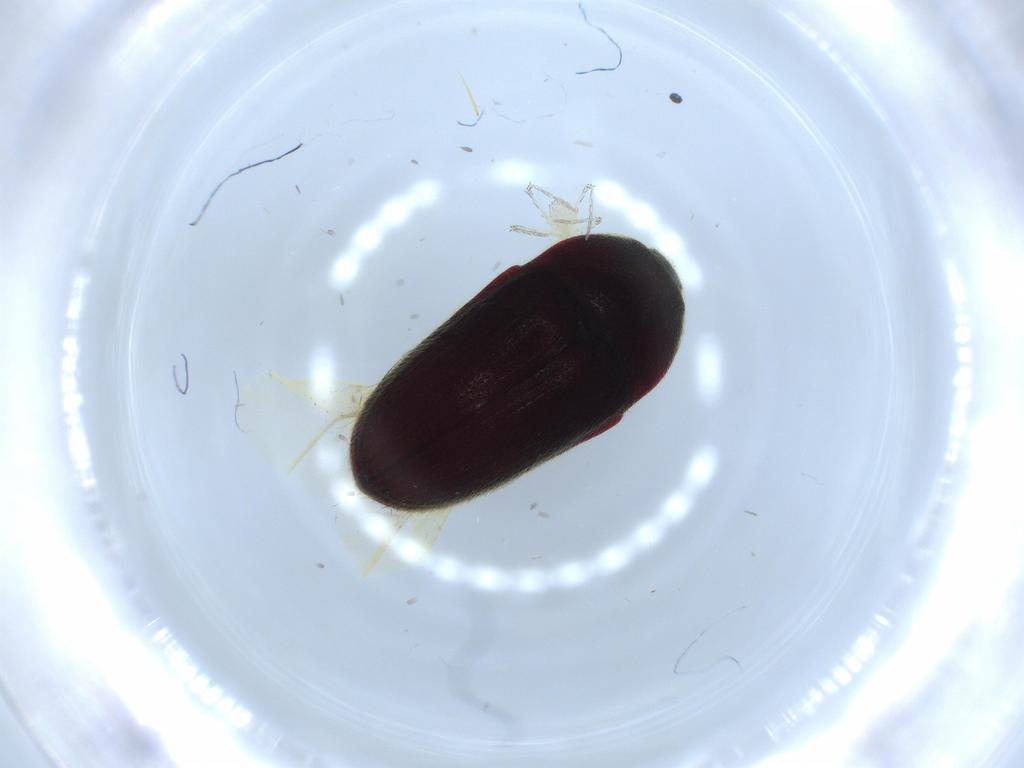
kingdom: Animalia
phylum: Arthropoda
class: Insecta
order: Coleoptera
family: Throscidae
